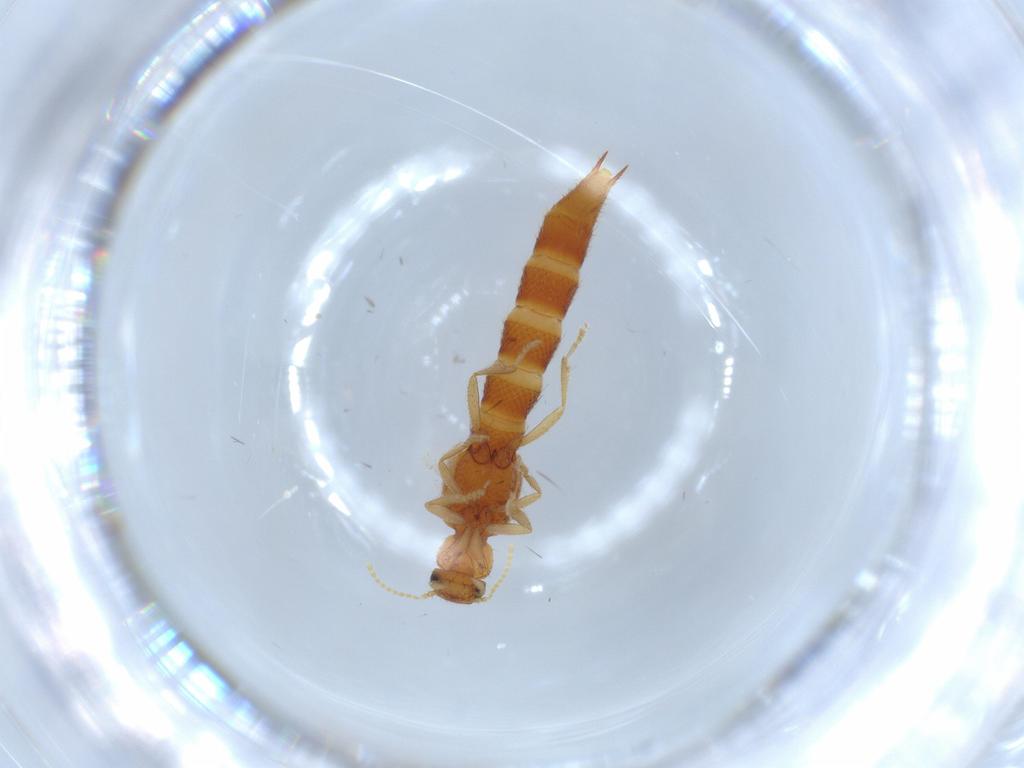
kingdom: Animalia
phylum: Arthropoda
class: Insecta
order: Coleoptera
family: Staphylinidae
